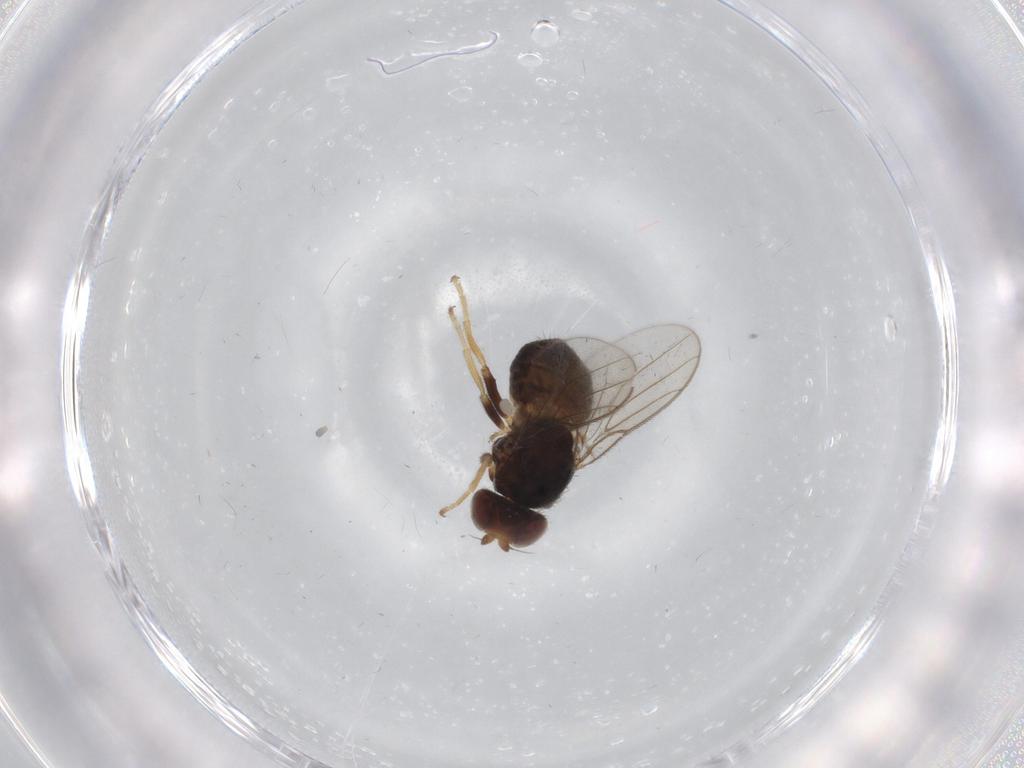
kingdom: Animalia
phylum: Arthropoda
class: Insecta
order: Diptera
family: Chloropidae
